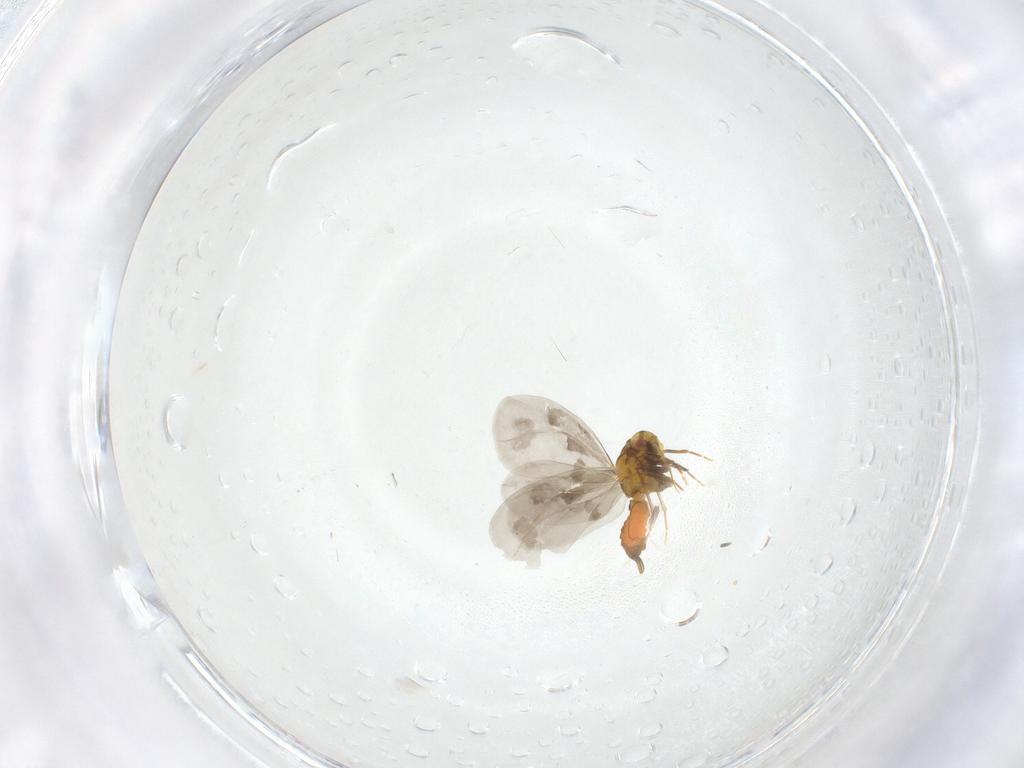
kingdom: Animalia
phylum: Arthropoda
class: Insecta
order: Hemiptera
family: Aleyrodidae
